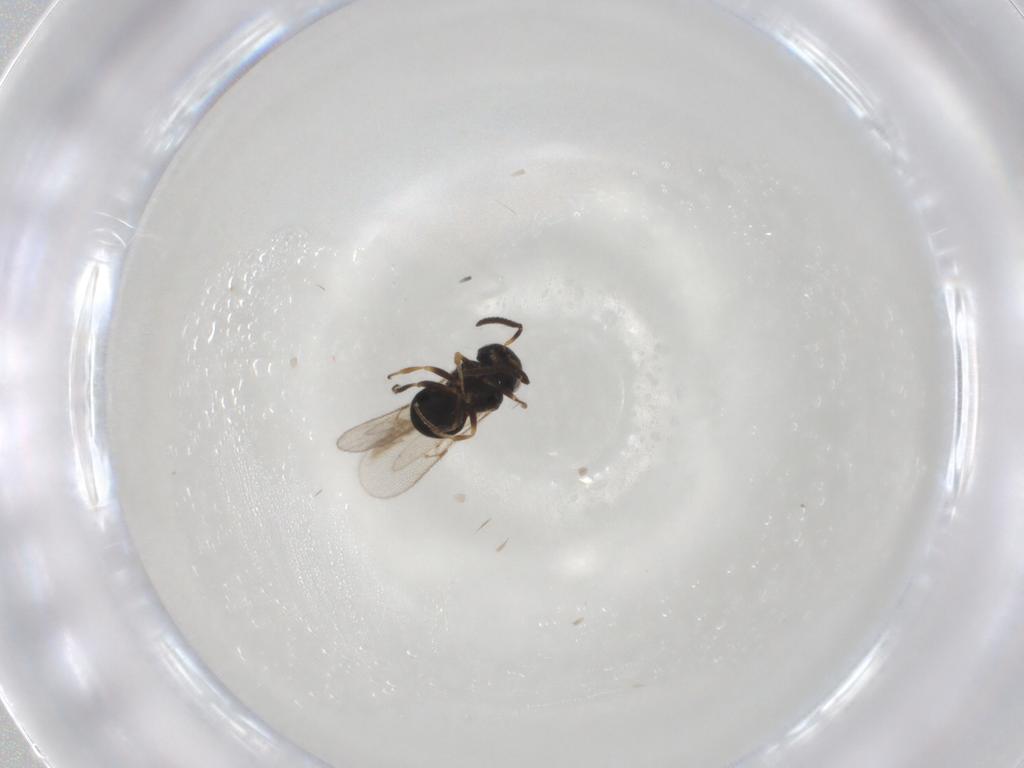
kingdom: Animalia
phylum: Arthropoda
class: Insecta
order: Hymenoptera
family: Scelionidae
